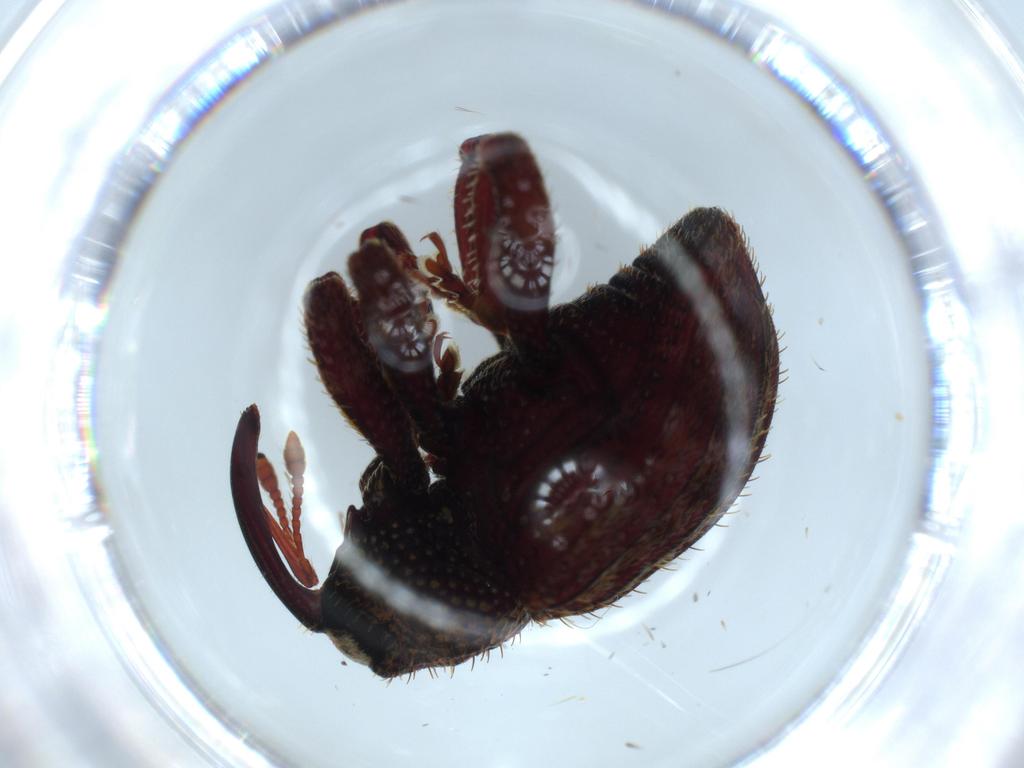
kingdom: Animalia
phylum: Arthropoda
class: Insecta
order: Coleoptera
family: Curculionidae
